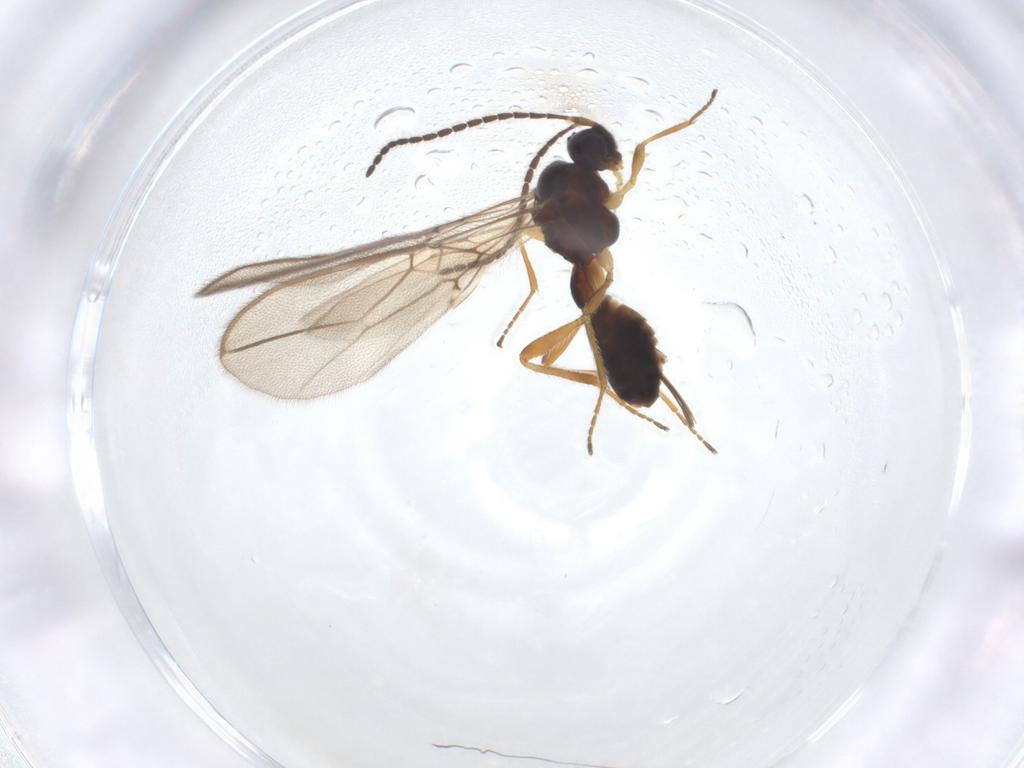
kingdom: Animalia
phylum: Arthropoda
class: Insecta
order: Hymenoptera
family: Braconidae
